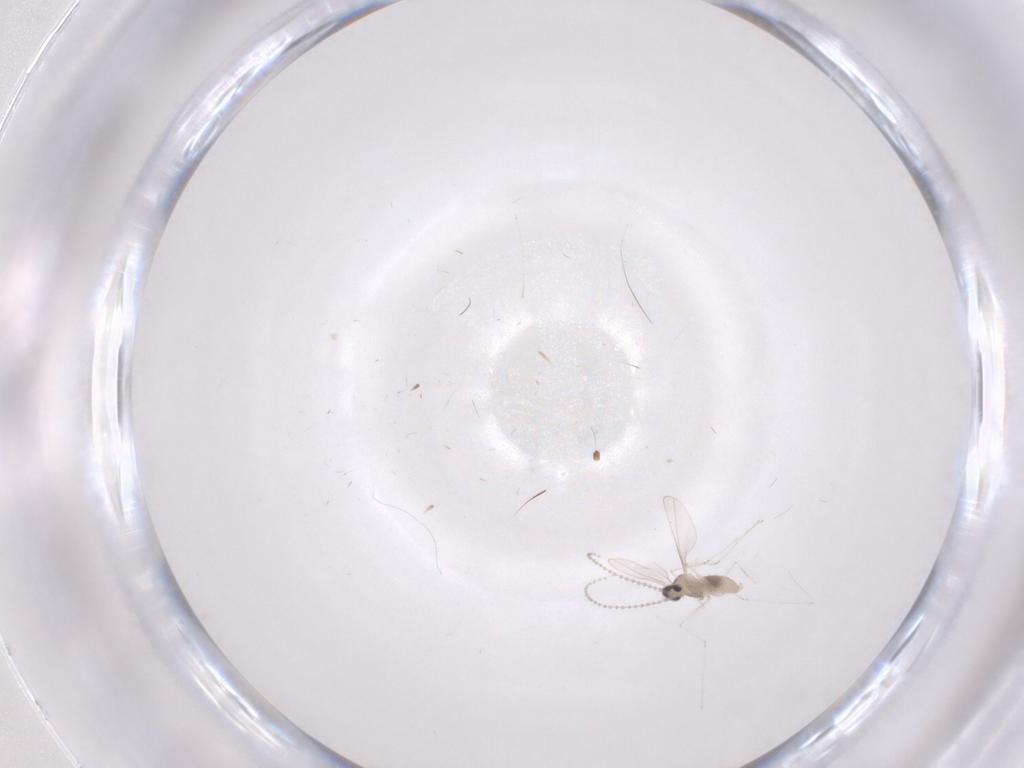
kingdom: Animalia
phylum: Arthropoda
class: Insecta
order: Diptera
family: Cecidomyiidae
